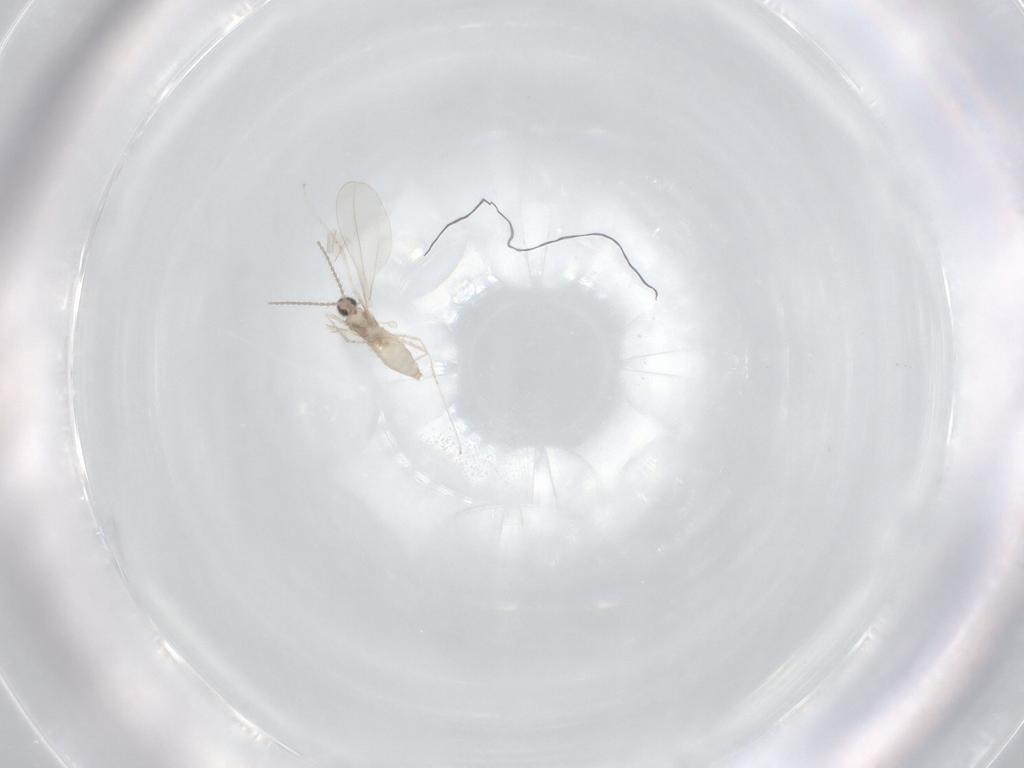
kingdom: Animalia
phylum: Arthropoda
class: Insecta
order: Diptera
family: Cecidomyiidae
